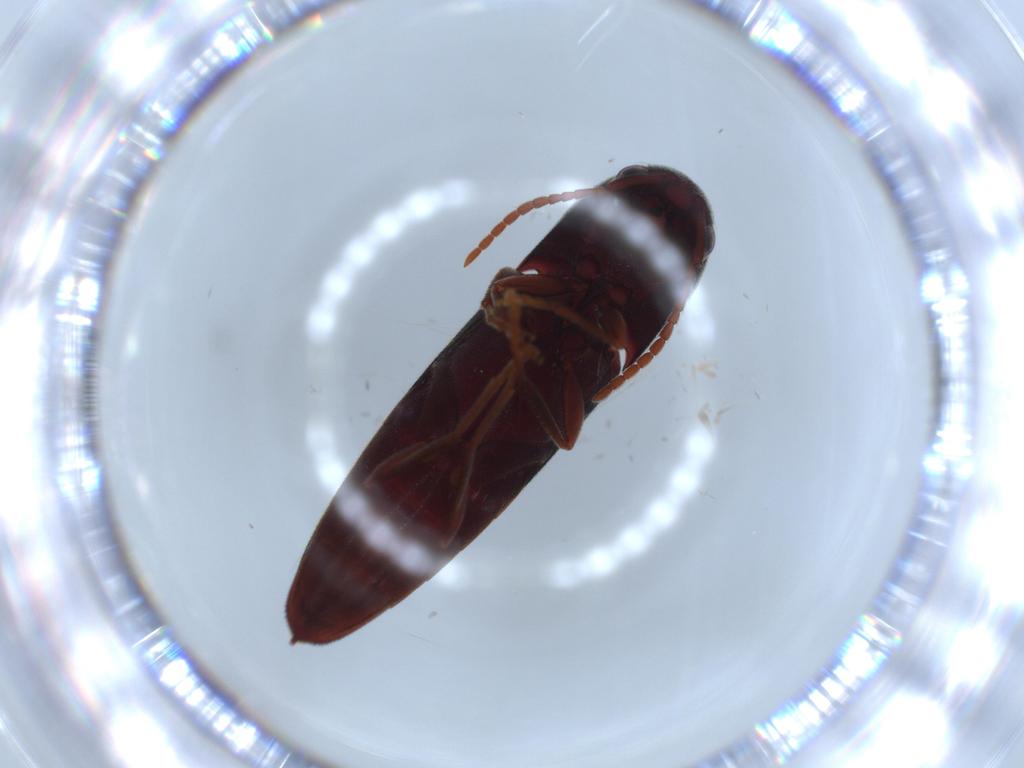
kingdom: Animalia
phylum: Arthropoda
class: Insecta
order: Coleoptera
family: Eucnemidae
